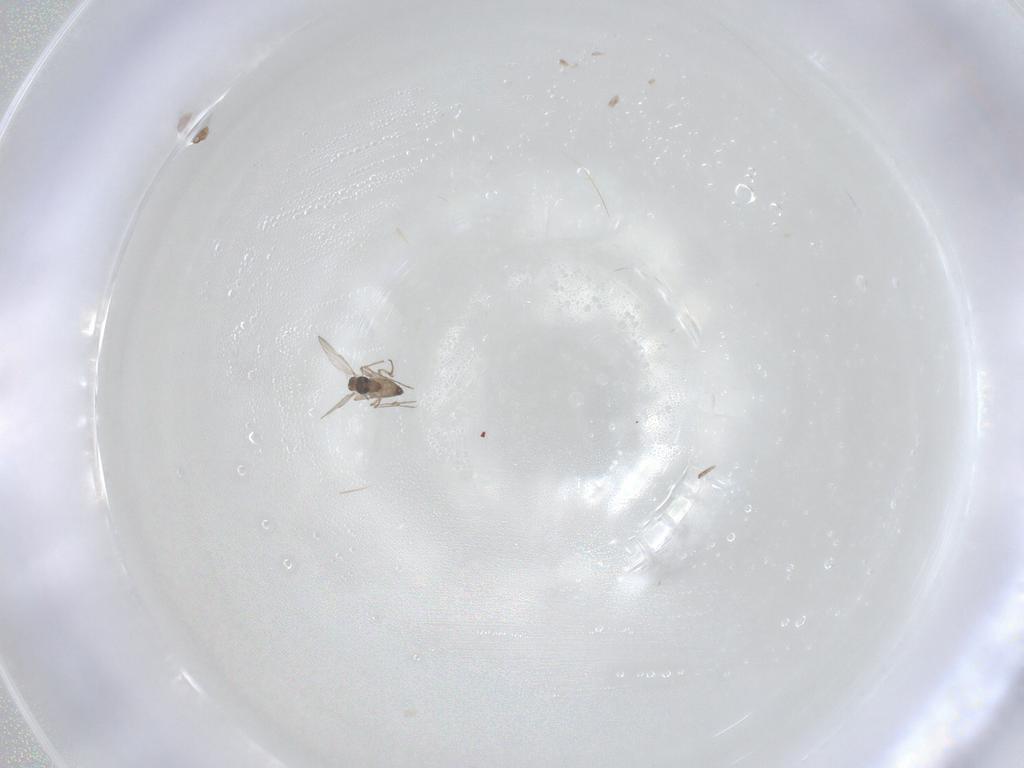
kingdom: Animalia
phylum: Arthropoda
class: Insecta
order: Diptera
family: Chironomidae
